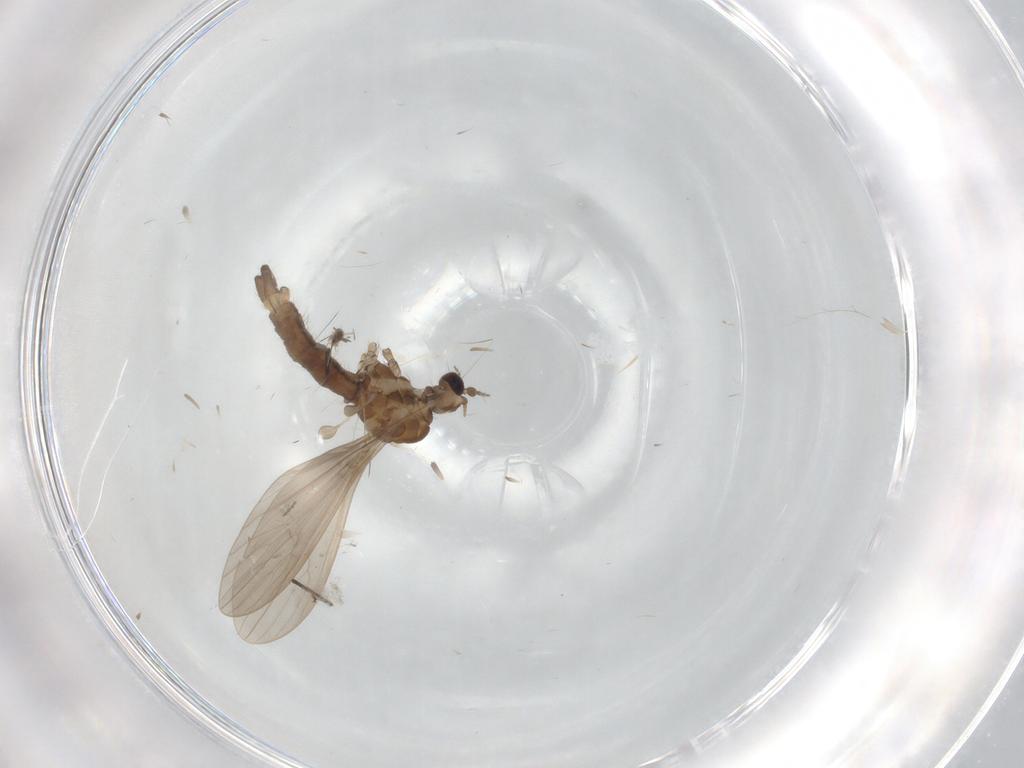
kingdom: Animalia
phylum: Arthropoda
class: Insecta
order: Diptera
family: Limoniidae
